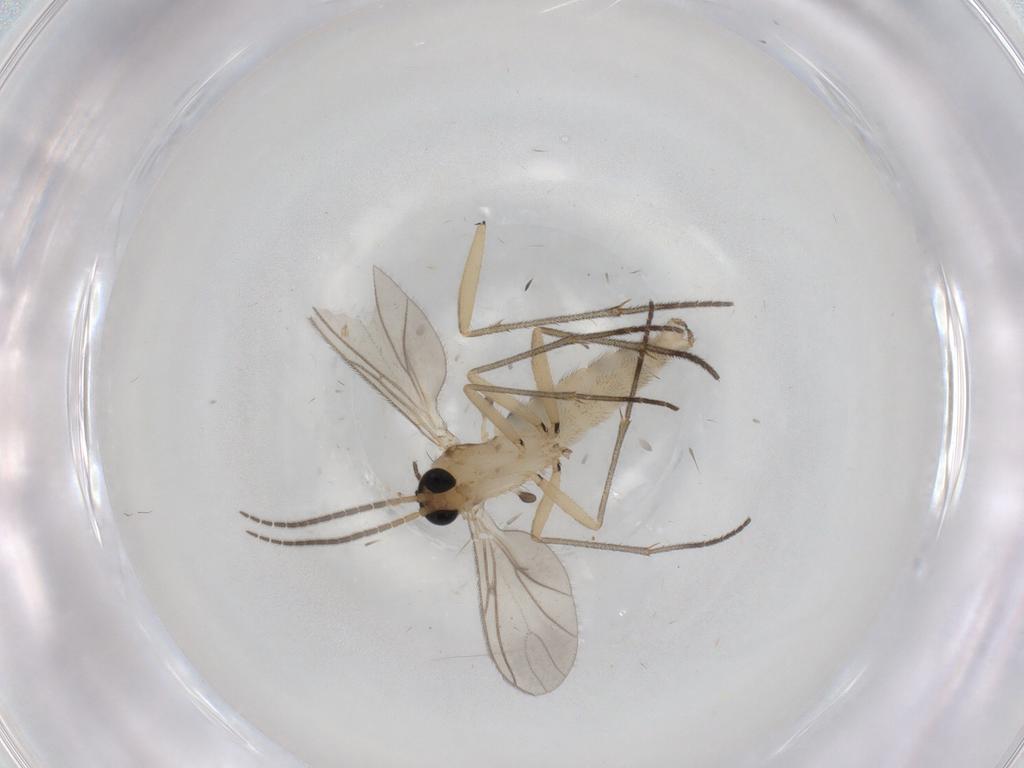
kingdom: Animalia
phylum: Arthropoda
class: Insecta
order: Diptera
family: Limoniidae
